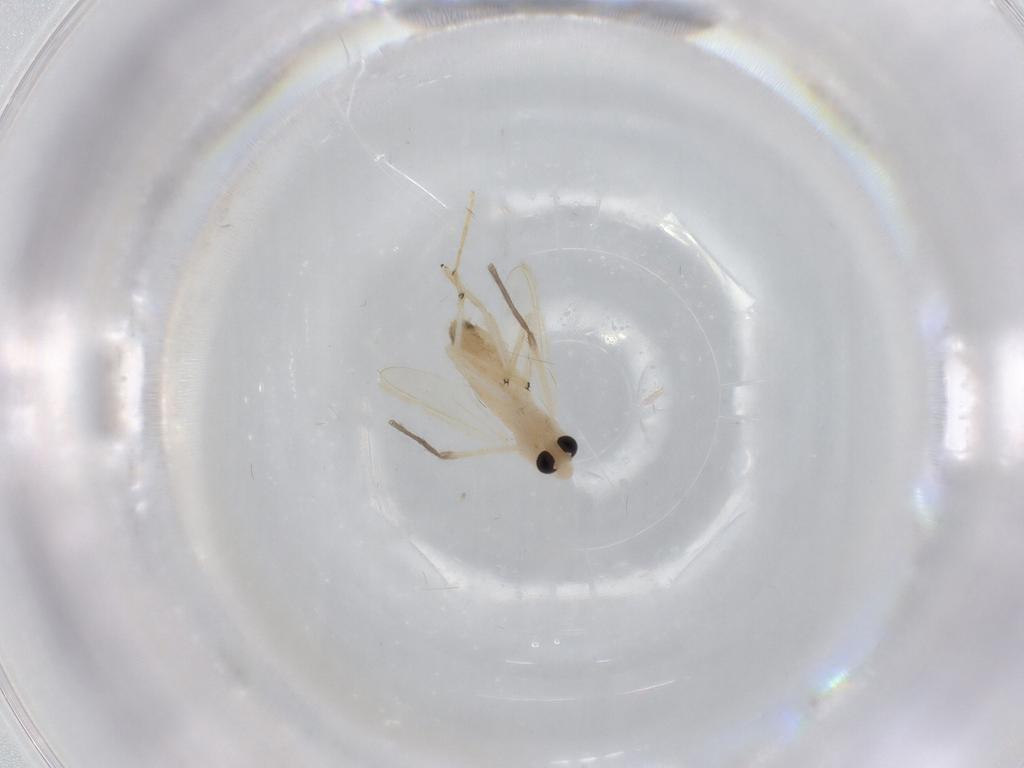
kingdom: Animalia
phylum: Arthropoda
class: Insecta
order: Diptera
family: Chironomidae
